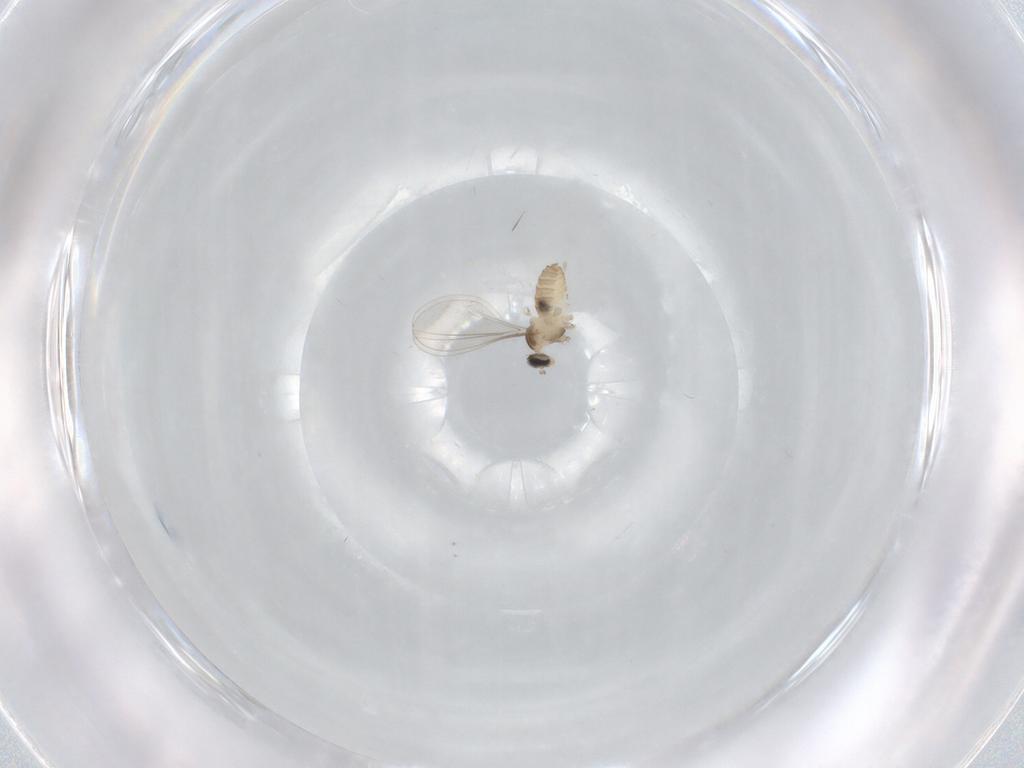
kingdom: Animalia
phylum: Arthropoda
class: Insecta
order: Diptera
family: Cecidomyiidae
